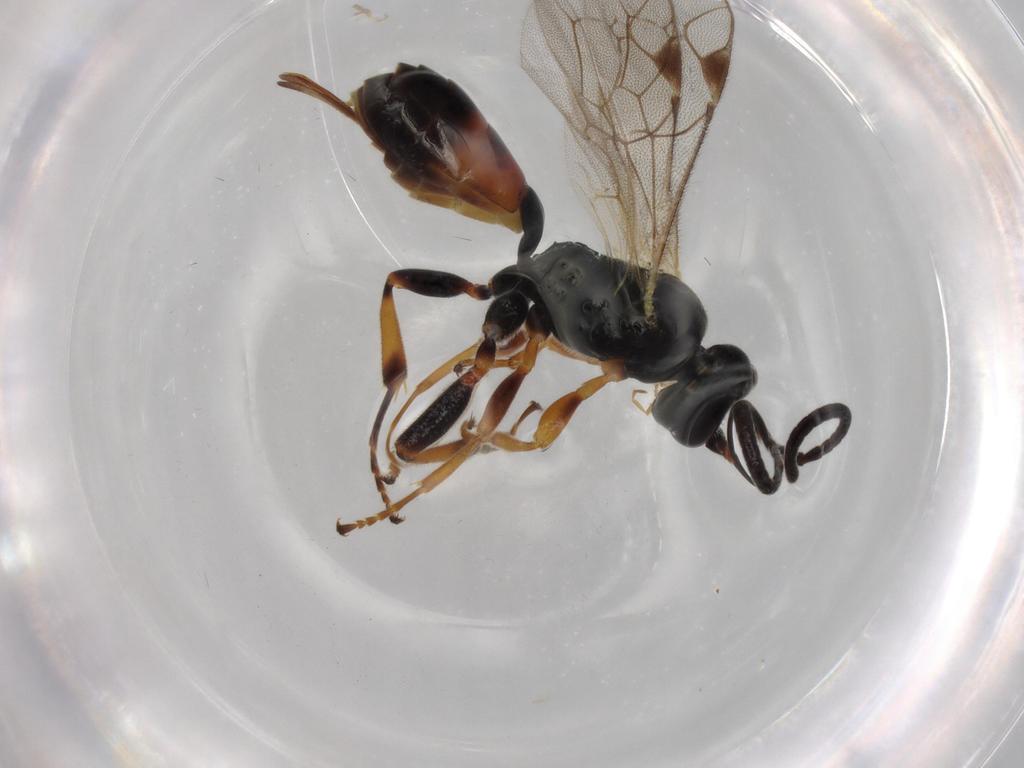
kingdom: Animalia
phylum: Arthropoda
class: Insecta
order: Hymenoptera
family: Ichneumonidae
